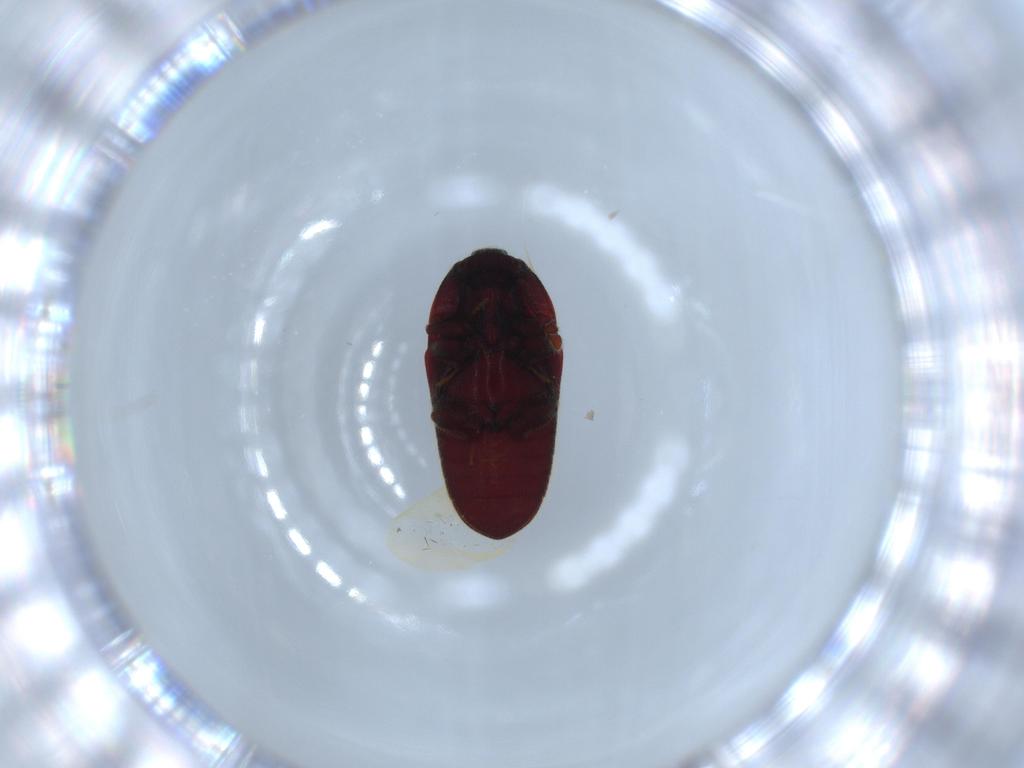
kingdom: Animalia
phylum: Arthropoda
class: Insecta
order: Coleoptera
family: Throscidae
